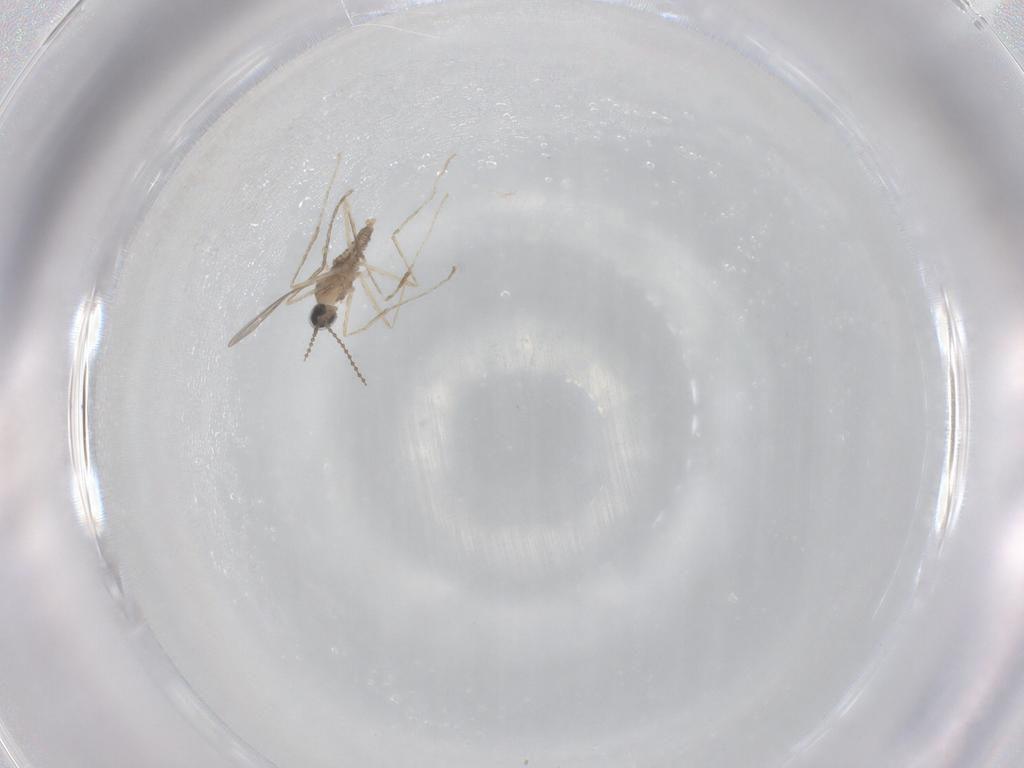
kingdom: Animalia
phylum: Arthropoda
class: Insecta
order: Diptera
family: Cecidomyiidae
